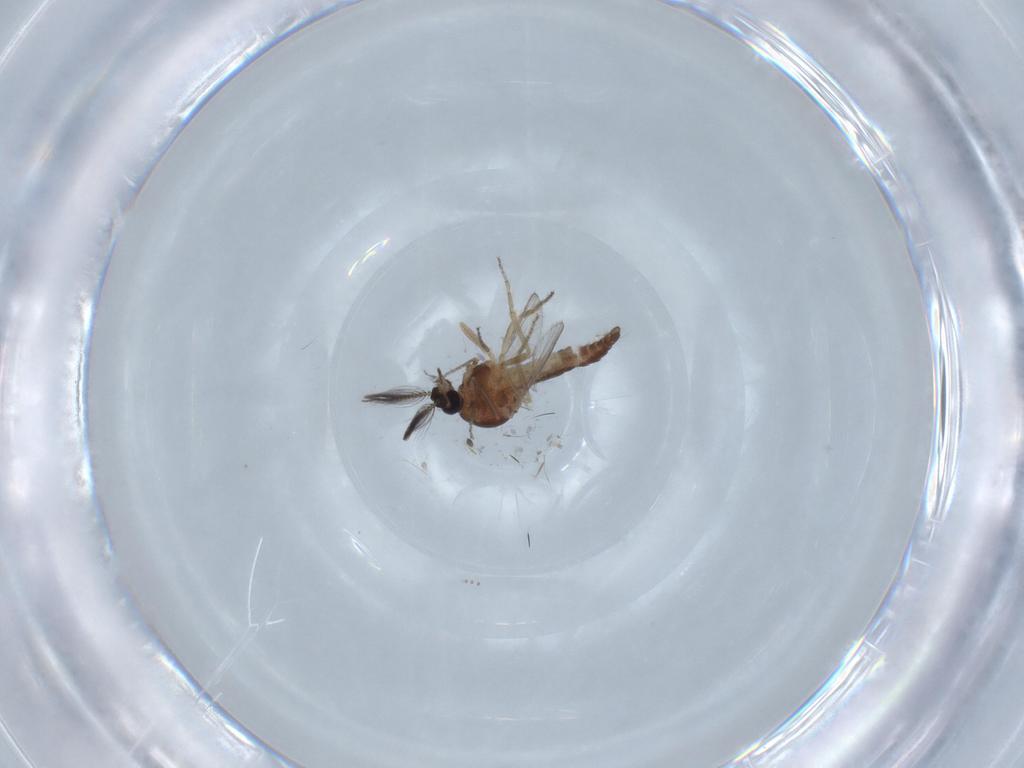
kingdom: Animalia
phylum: Arthropoda
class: Insecta
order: Diptera
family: Ceratopogonidae
